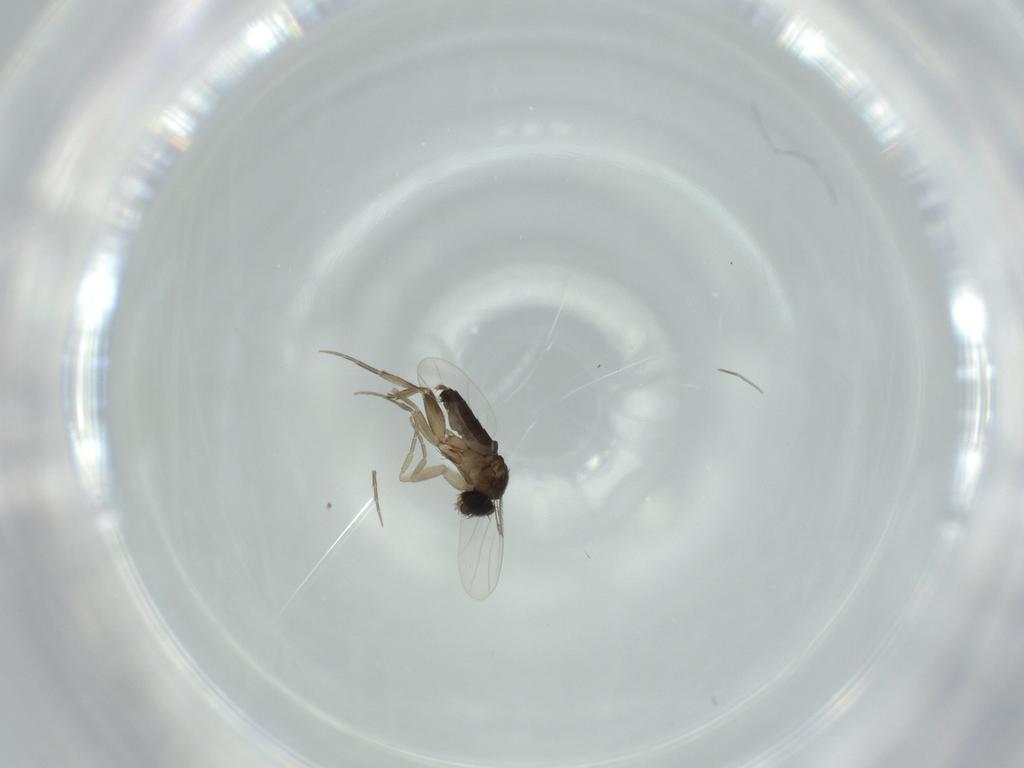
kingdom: Animalia
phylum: Arthropoda
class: Insecta
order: Diptera
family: Phoridae
